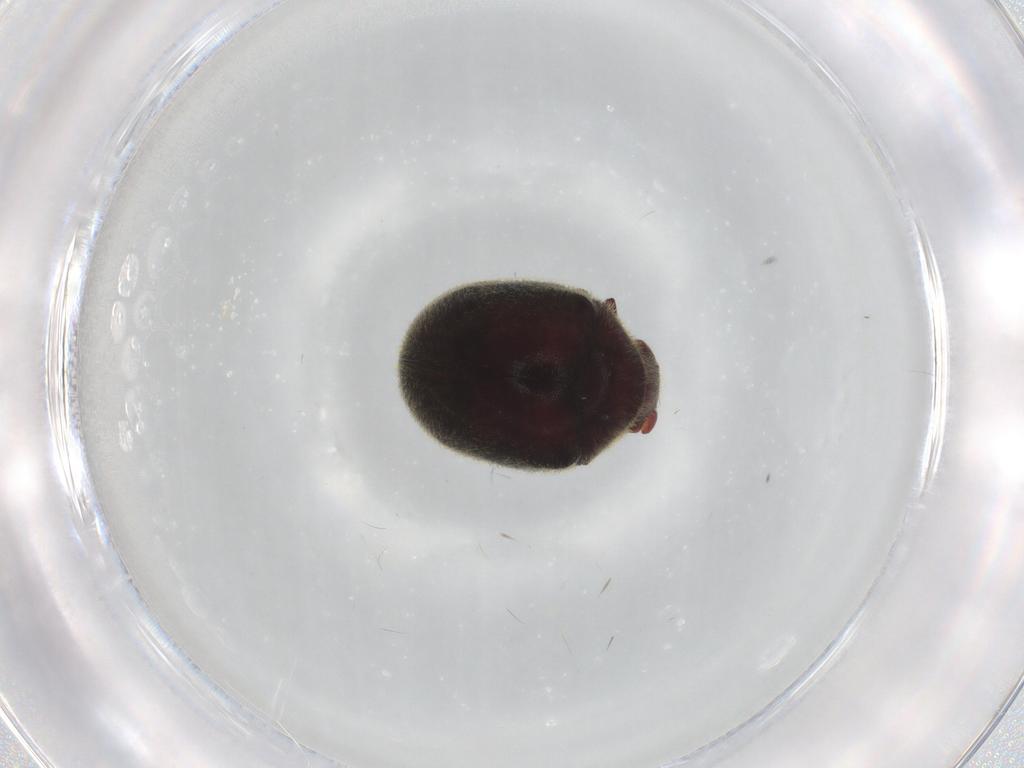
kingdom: Animalia
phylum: Arthropoda
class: Insecta
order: Coleoptera
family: Ptinidae
